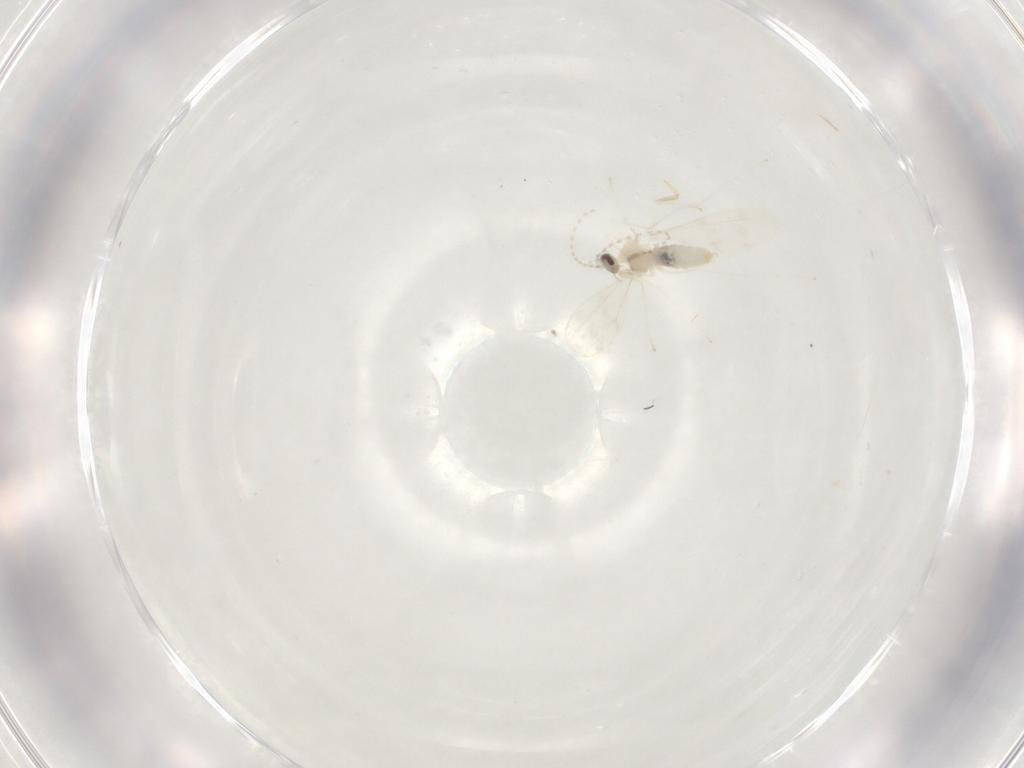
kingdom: Animalia
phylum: Arthropoda
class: Insecta
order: Diptera
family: Cecidomyiidae
